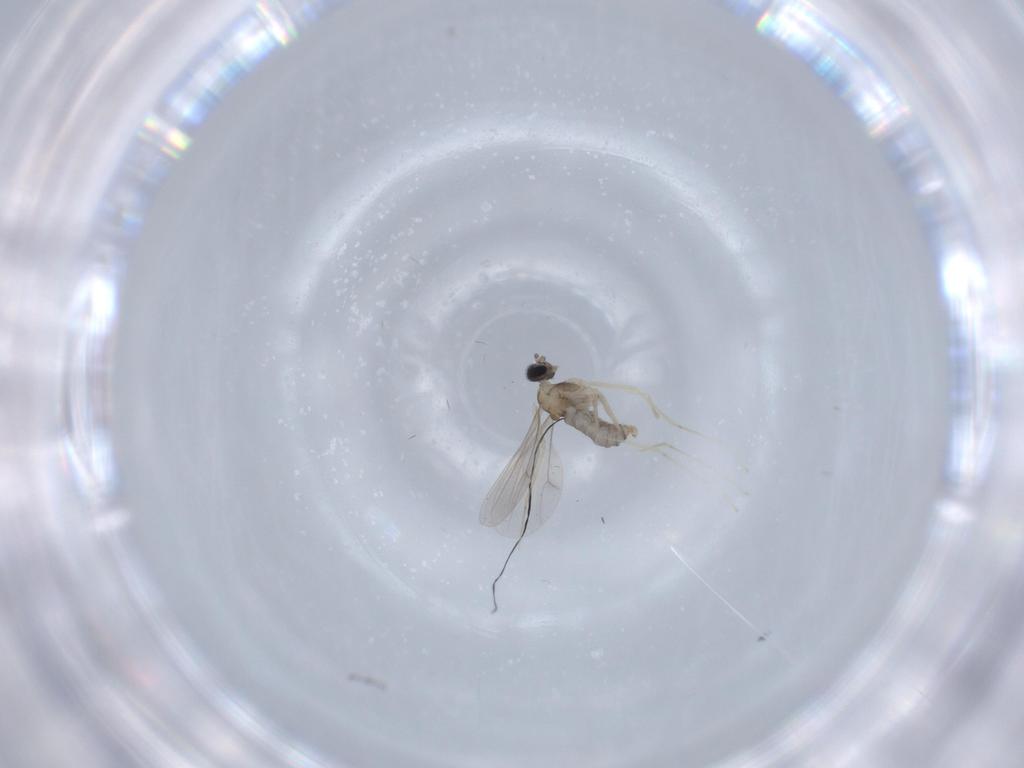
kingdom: Animalia
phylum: Arthropoda
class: Insecta
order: Diptera
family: Cecidomyiidae
